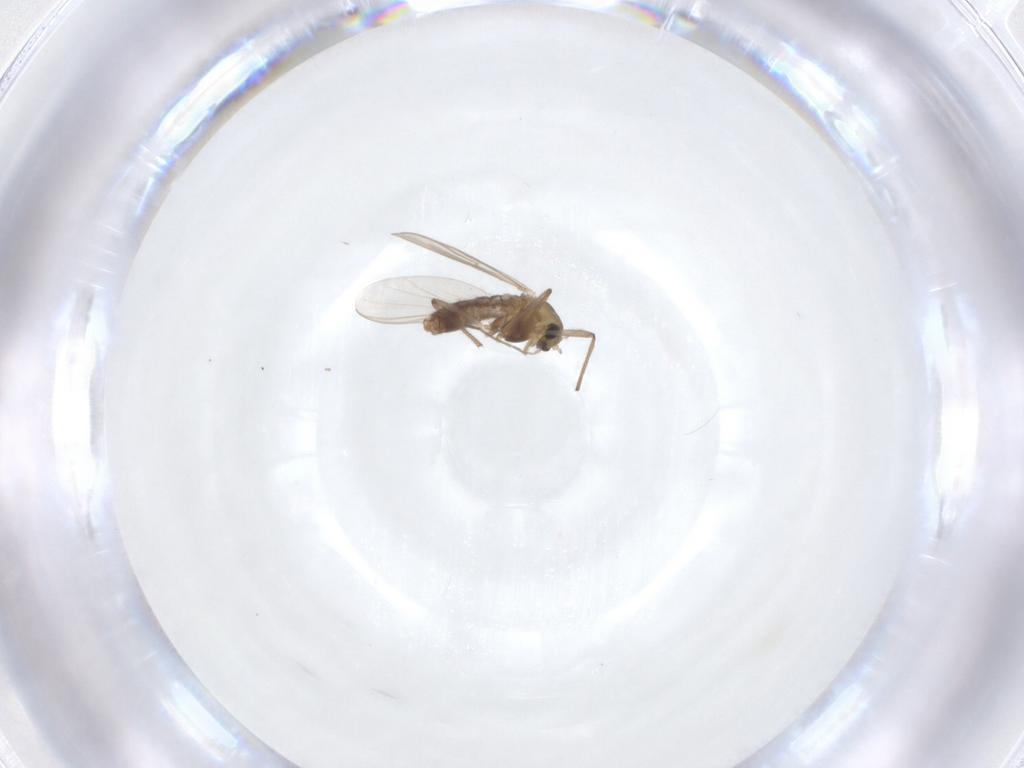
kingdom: Animalia
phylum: Arthropoda
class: Insecta
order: Diptera
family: Chironomidae
